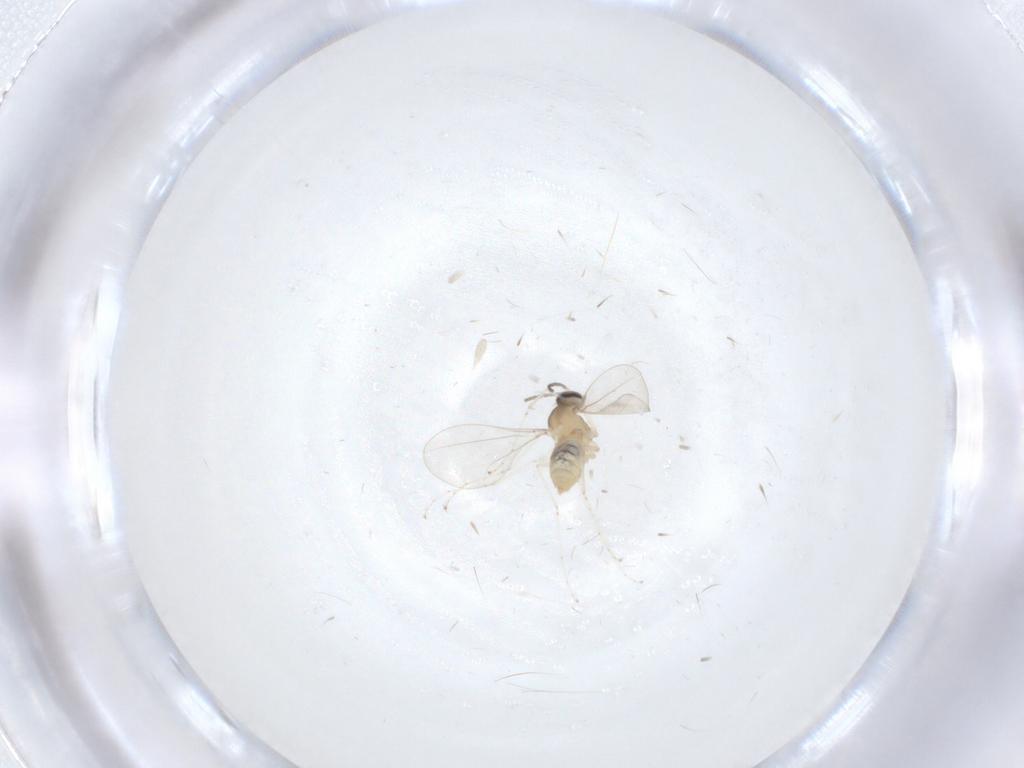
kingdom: Animalia
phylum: Arthropoda
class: Insecta
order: Diptera
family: Cecidomyiidae
